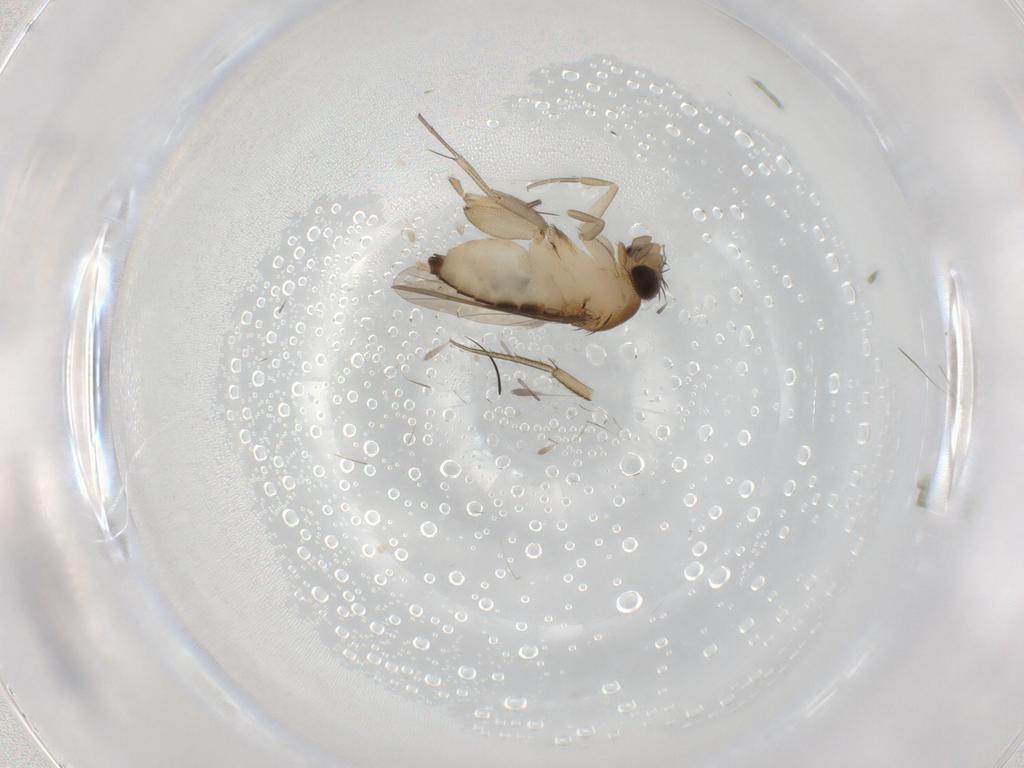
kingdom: Animalia
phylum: Arthropoda
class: Insecta
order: Diptera
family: Phoridae
